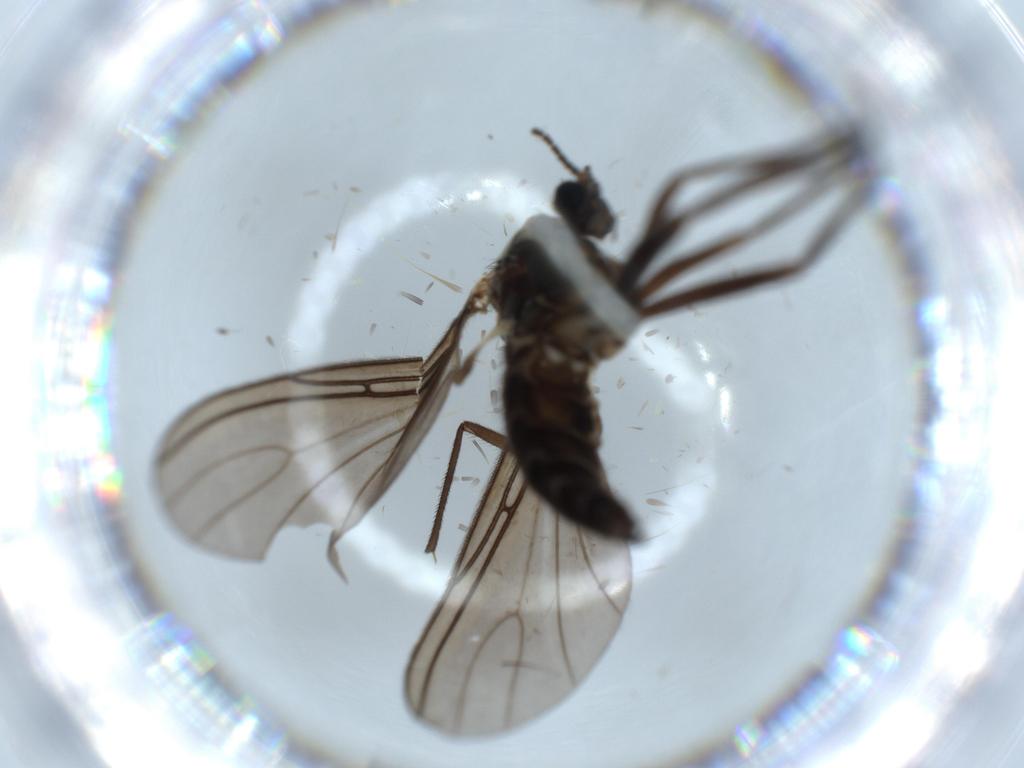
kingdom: Animalia
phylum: Arthropoda
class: Insecta
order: Diptera
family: Sciaridae
